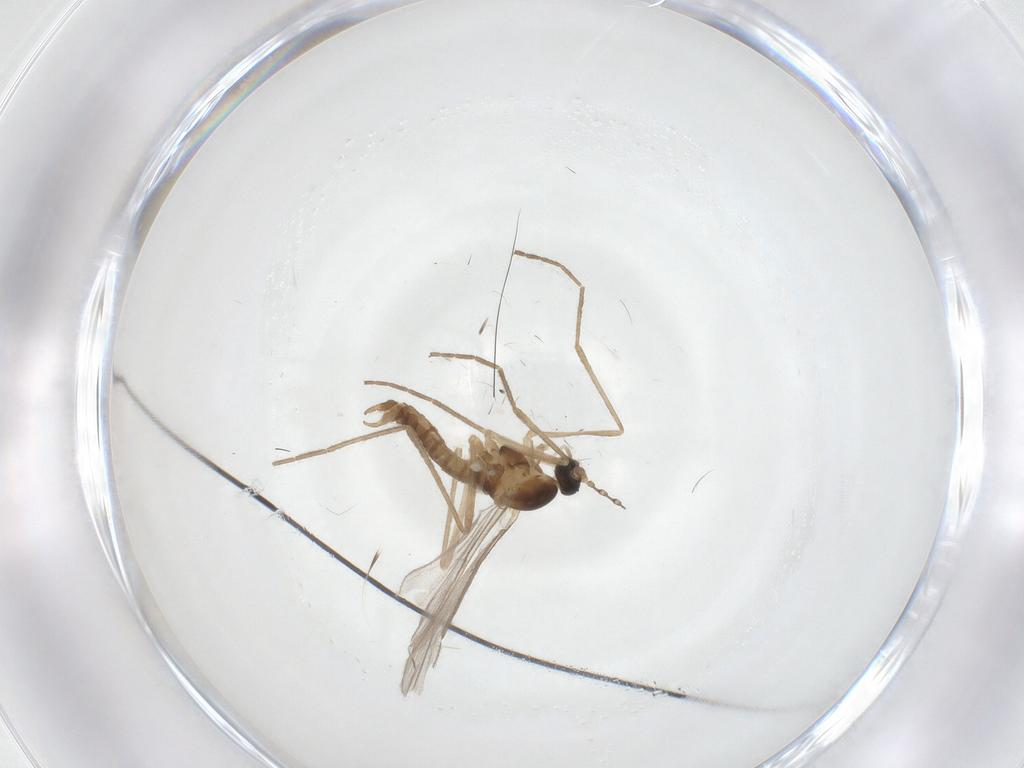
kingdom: Animalia
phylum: Arthropoda
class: Insecta
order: Diptera
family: Cecidomyiidae
